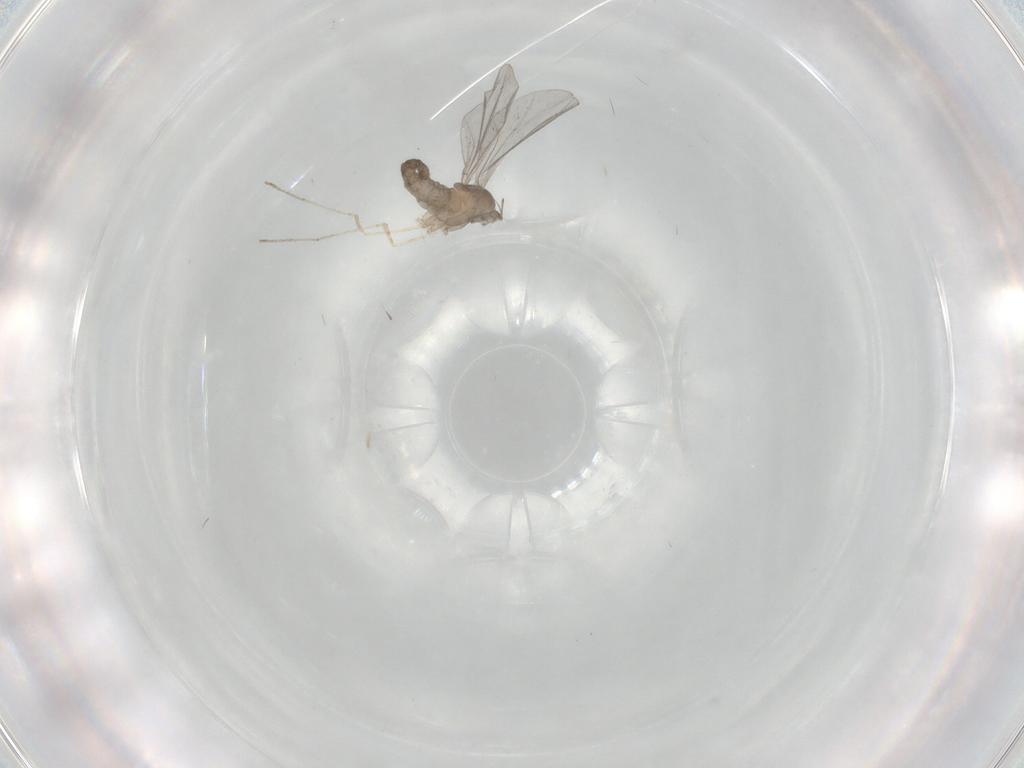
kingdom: Animalia
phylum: Arthropoda
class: Insecta
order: Diptera
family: Cecidomyiidae
